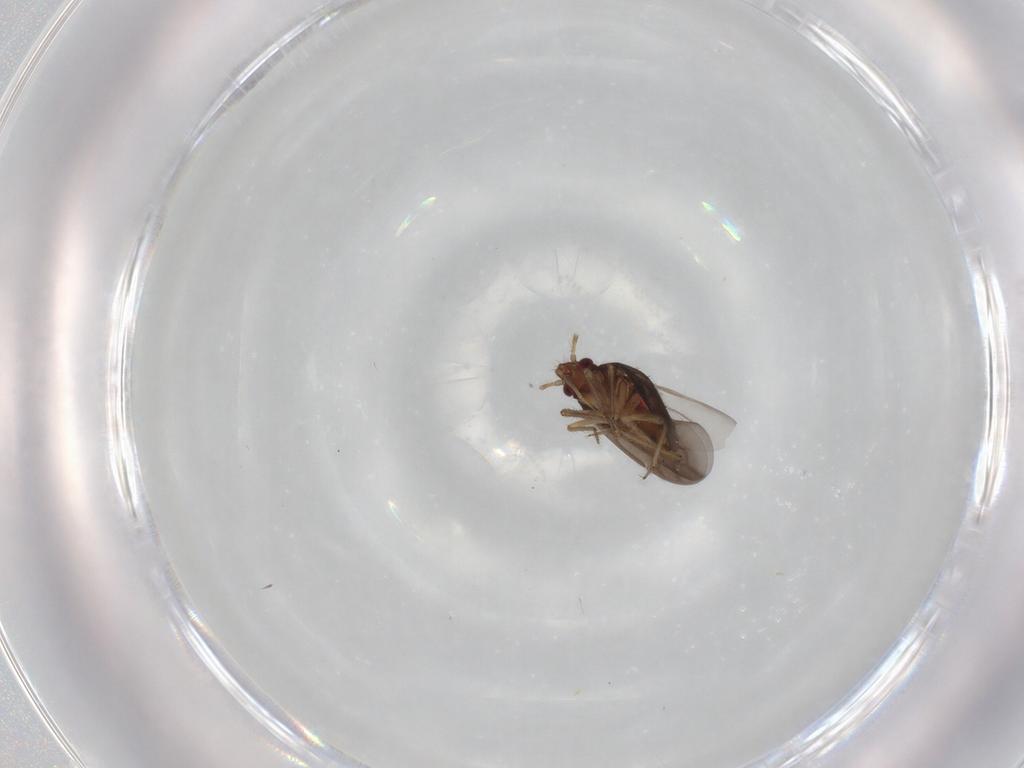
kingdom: Animalia
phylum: Arthropoda
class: Insecta
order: Hemiptera
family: Ceratocombidae
